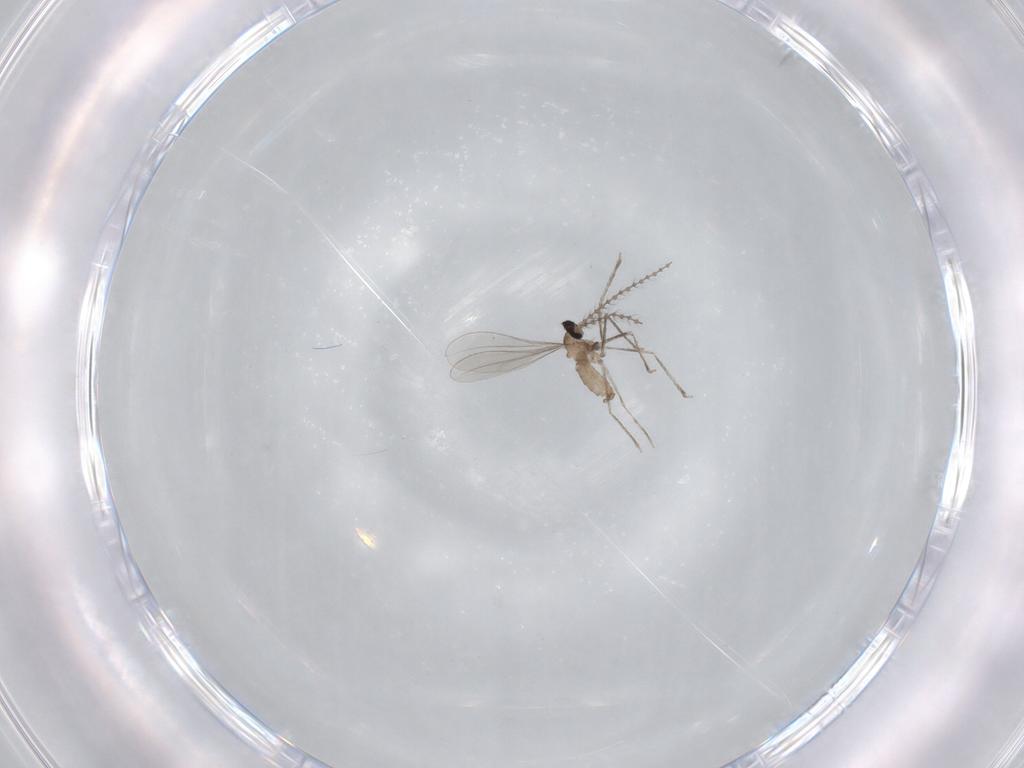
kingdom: Animalia
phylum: Arthropoda
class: Insecta
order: Diptera
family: Cecidomyiidae
